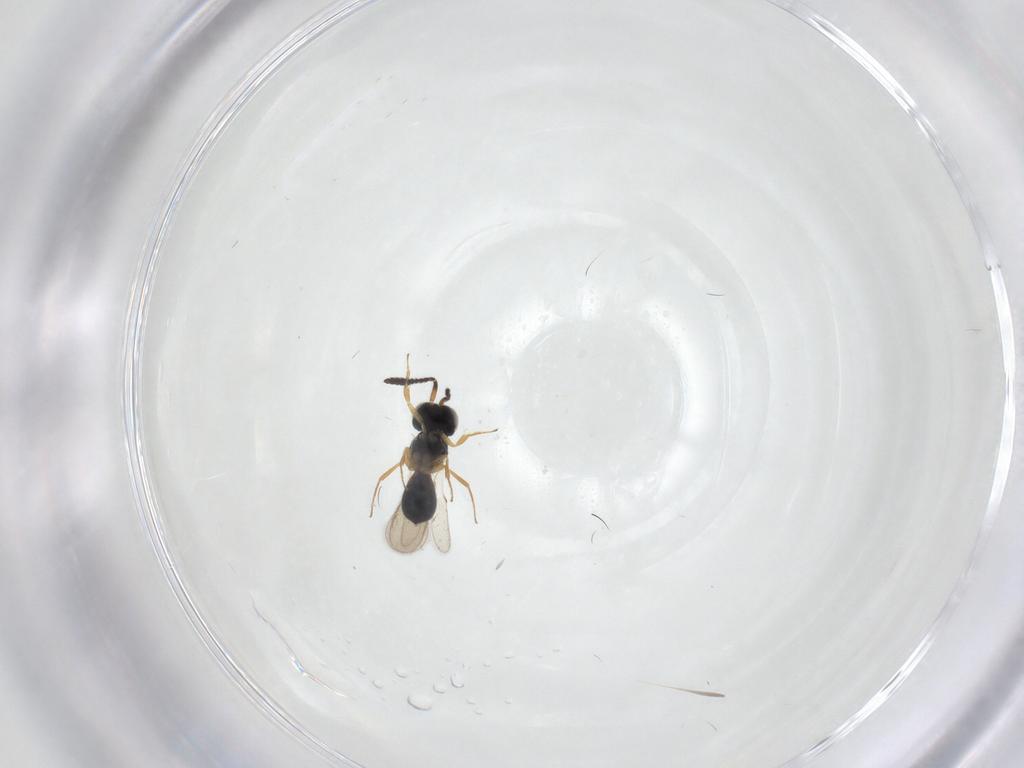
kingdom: Animalia
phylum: Arthropoda
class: Insecta
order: Hymenoptera
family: Scelionidae
